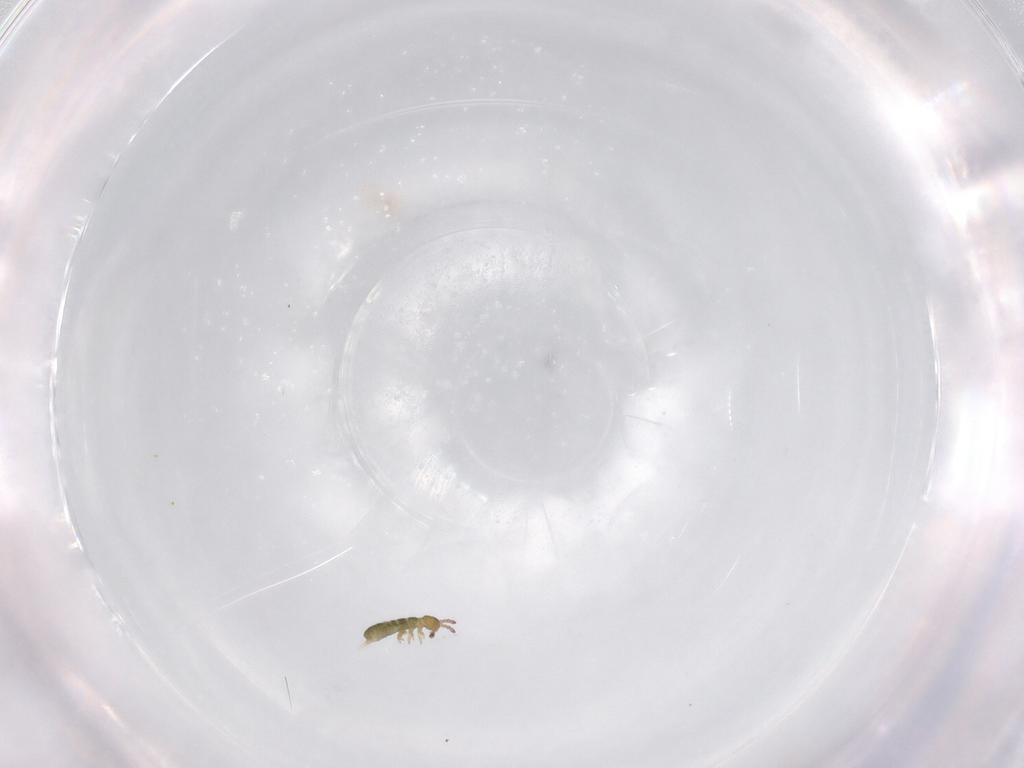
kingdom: Animalia
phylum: Arthropoda
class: Collembola
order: Entomobryomorpha
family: Isotomidae
